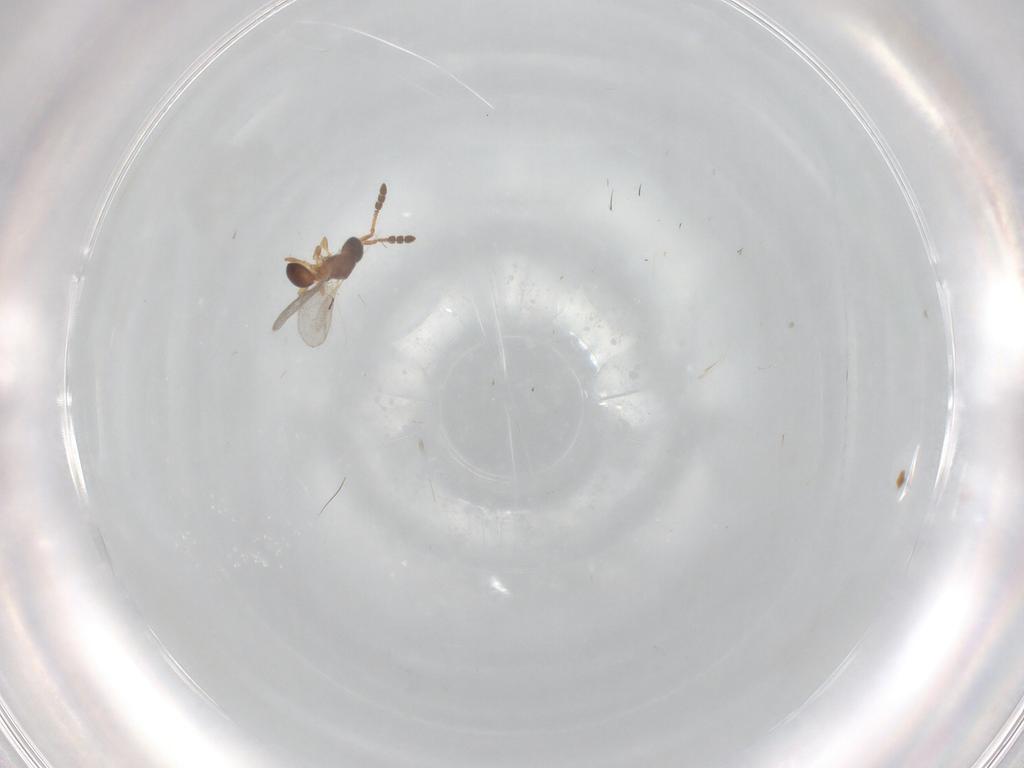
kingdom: Animalia
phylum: Arthropoda
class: Insecta
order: Hymenoptera
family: Diapriidae
